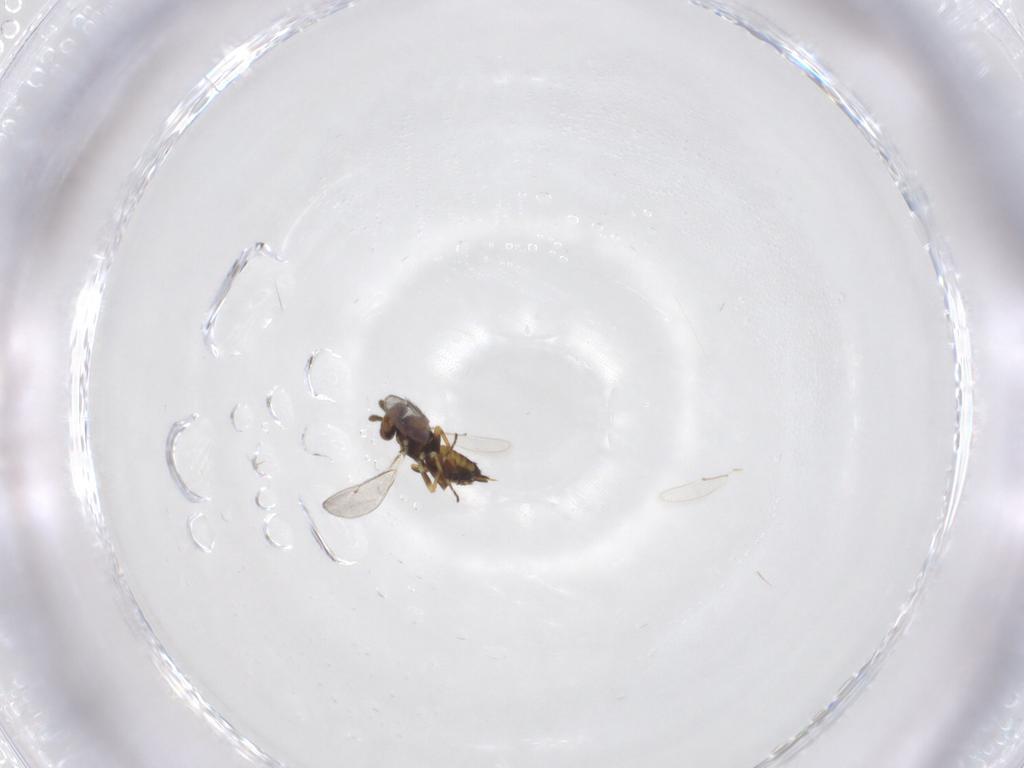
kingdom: Animalia
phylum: Arthropoda
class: Insecta
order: Hymenoptera
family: Eulophidae
